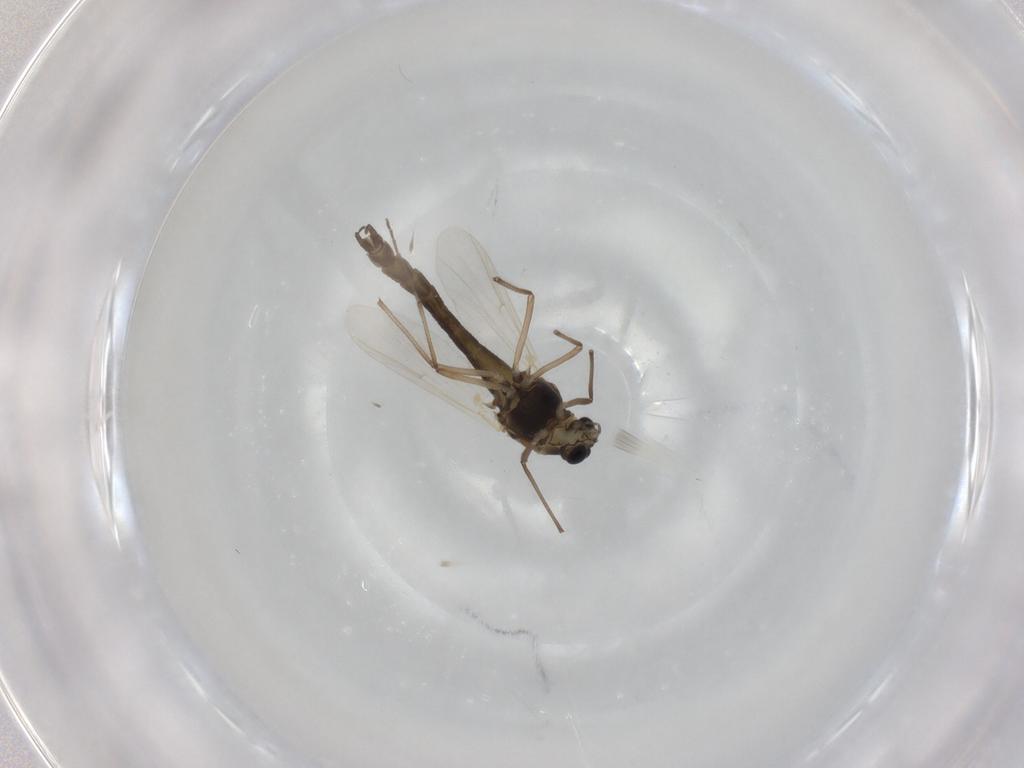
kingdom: Animalia
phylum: Arthropoda
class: Insecta
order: Diptera
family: Chironomidae
